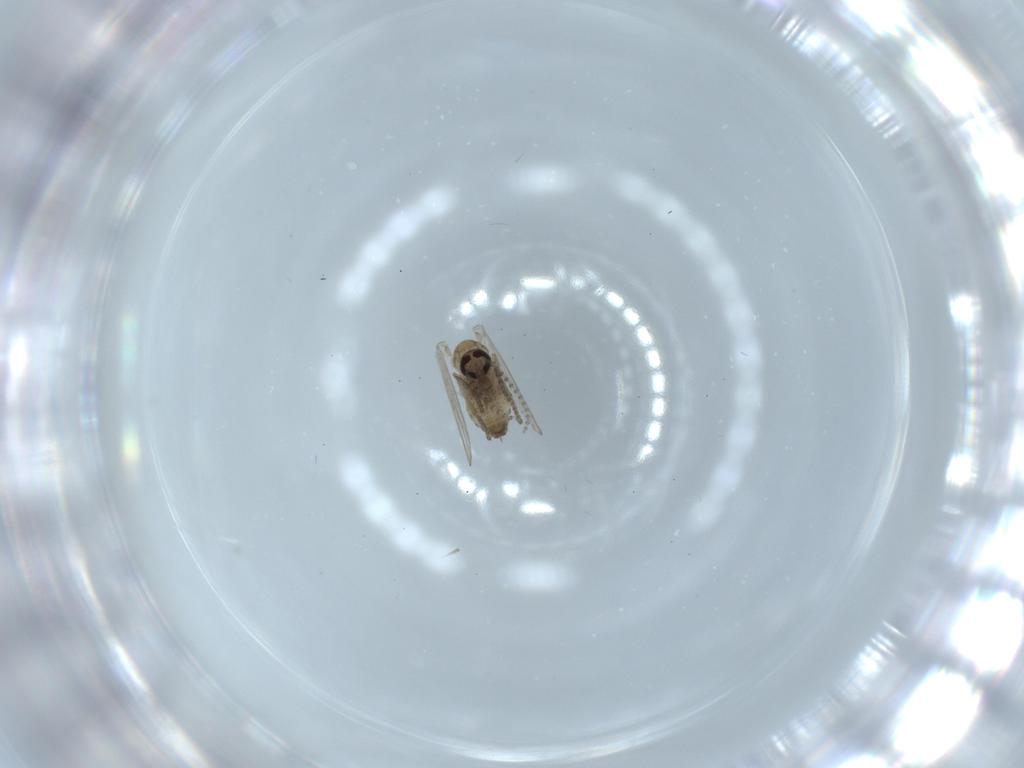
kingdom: Animalia
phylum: Arthropoda
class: Insecta
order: Diptera
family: Psychodidae
